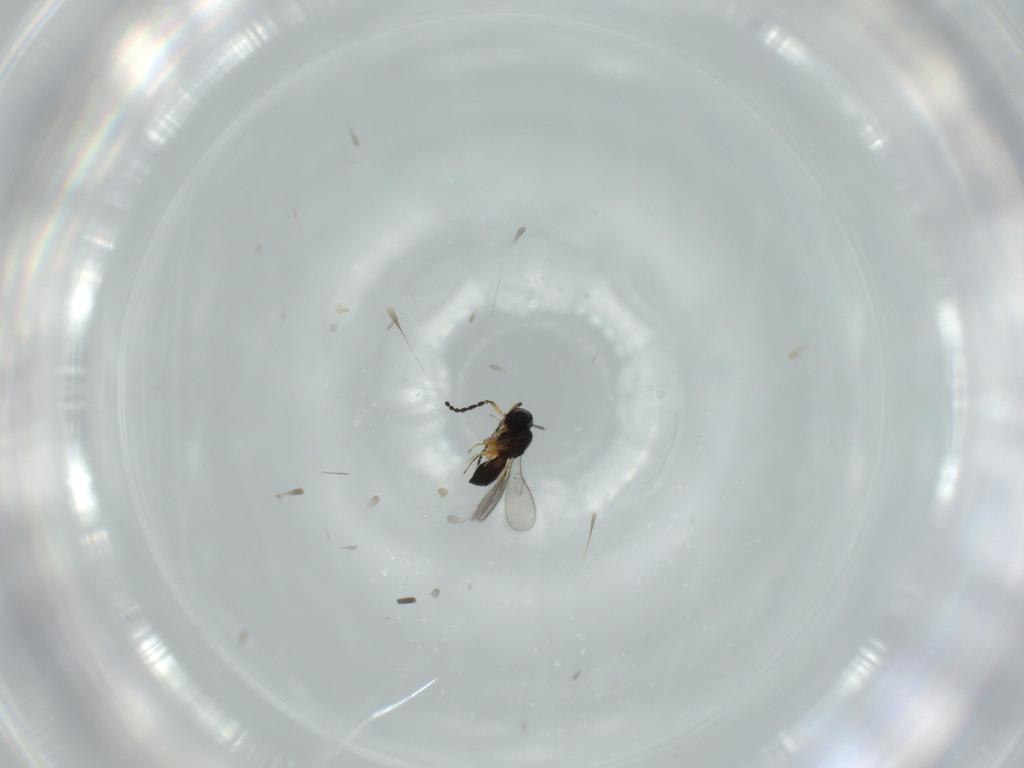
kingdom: Animalia
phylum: Arthropoda
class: Insecta
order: Hymenoptera
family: Scelionidae
